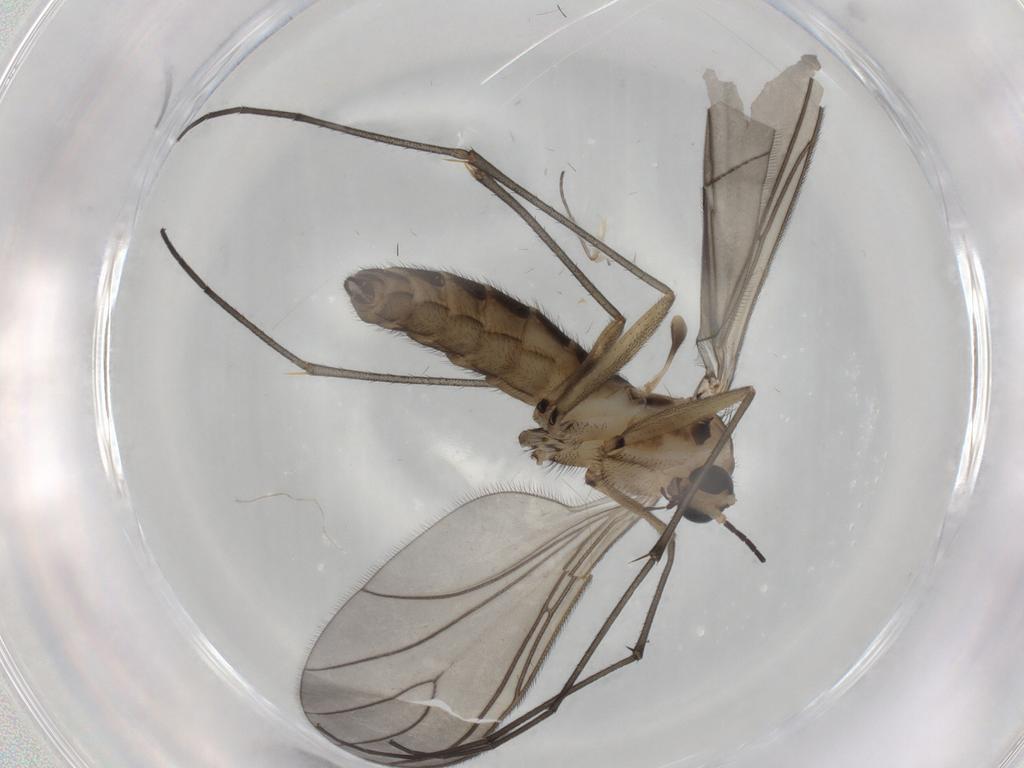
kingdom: Animalia
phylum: Arthropoda
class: Insecta
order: Diptera
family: Sciaridae
